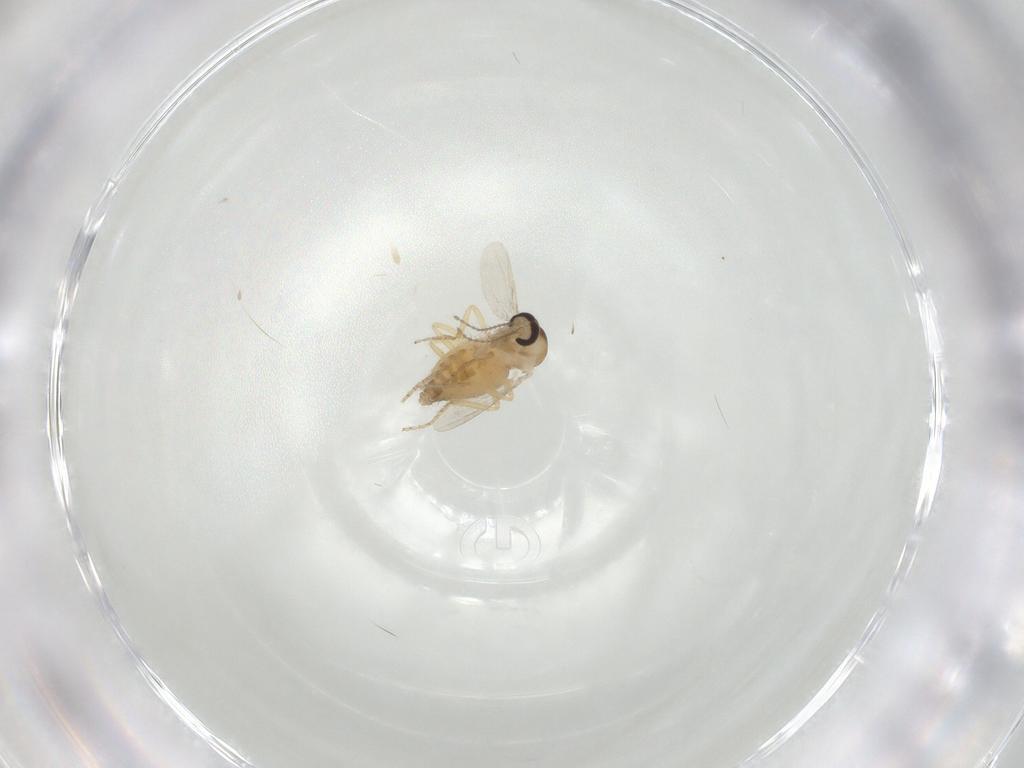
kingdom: Animalia
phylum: Arthropoda
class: Insecta
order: Diptera
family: Ceratopogonidae
